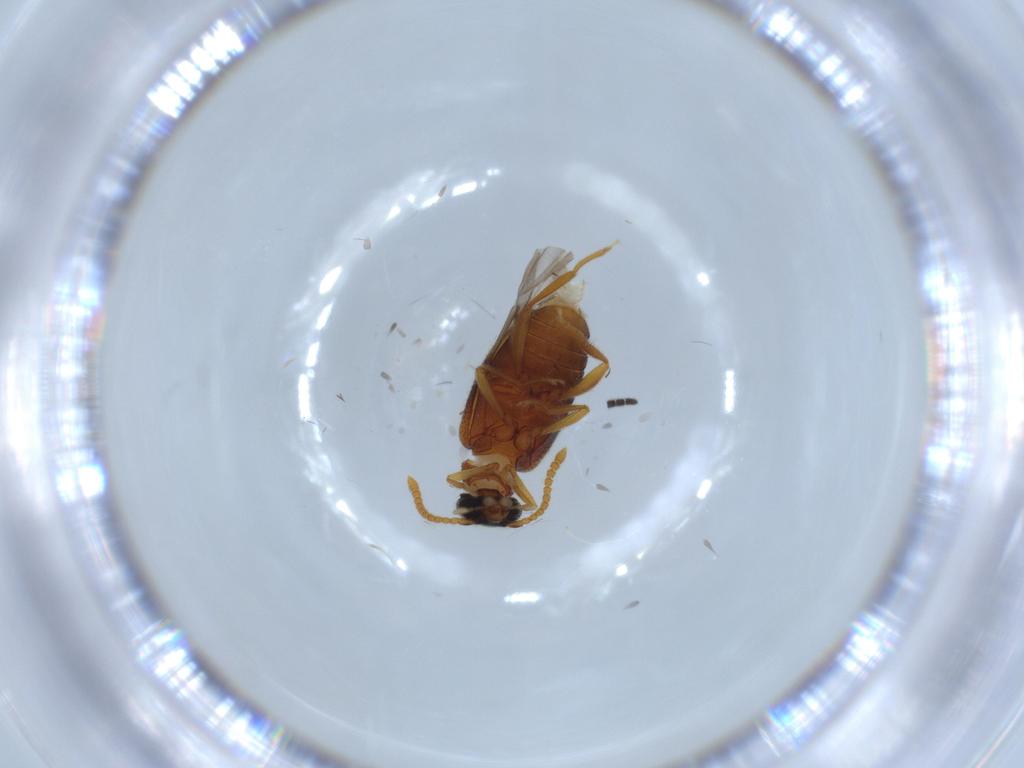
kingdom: Animalia
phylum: Arthropoda
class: Insecta
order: Coleoptera
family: Aderidae
